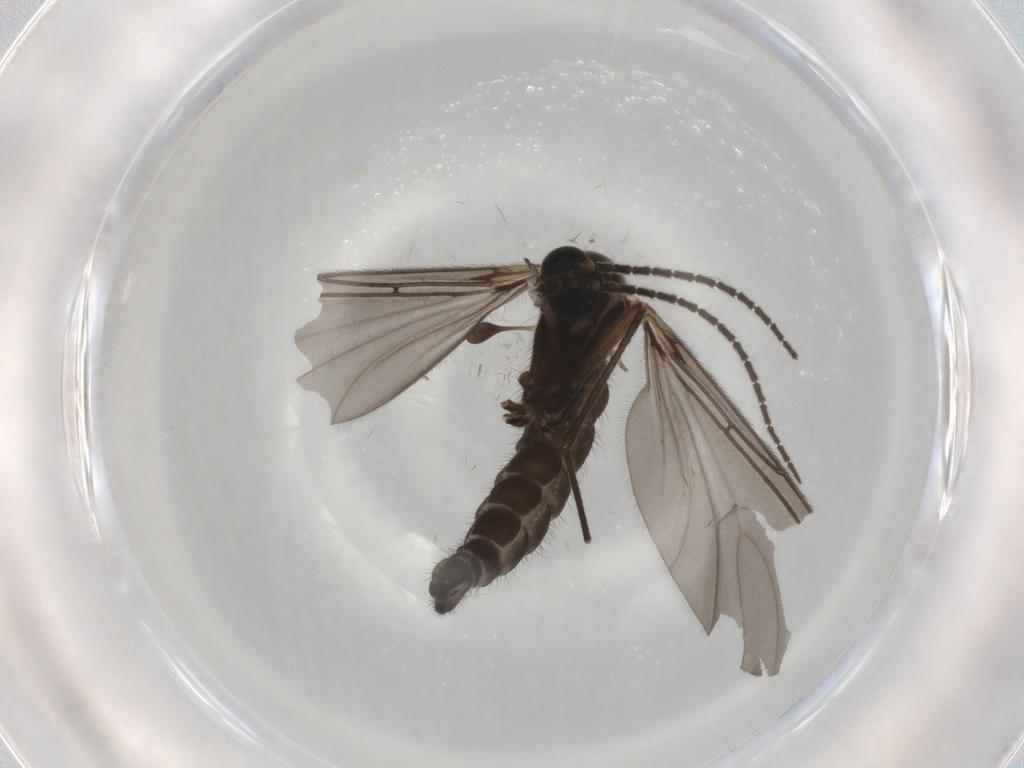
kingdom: Animalia
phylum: Arthropoda
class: Insecta
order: Diptera
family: Sciaridae
